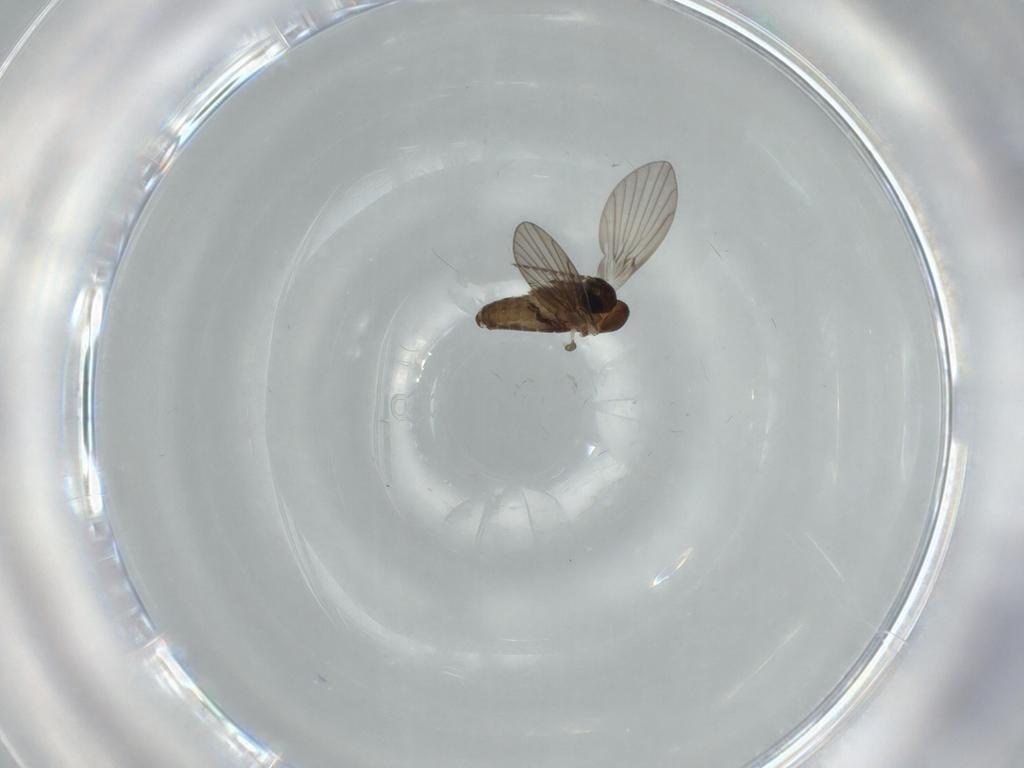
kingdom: Animalia
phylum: Arthropoda
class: Insecta
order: Diptera
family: Psychodidae
